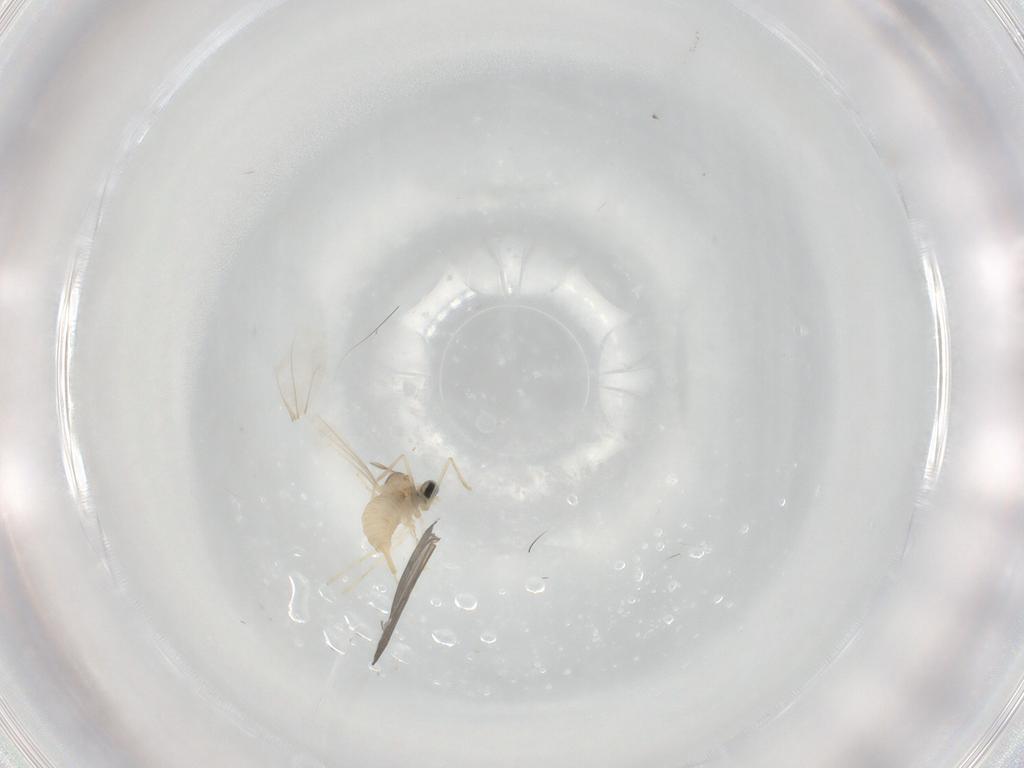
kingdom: Animalia
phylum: Arthropoda
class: Insecta
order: Diptera
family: Cecidomyiidae
